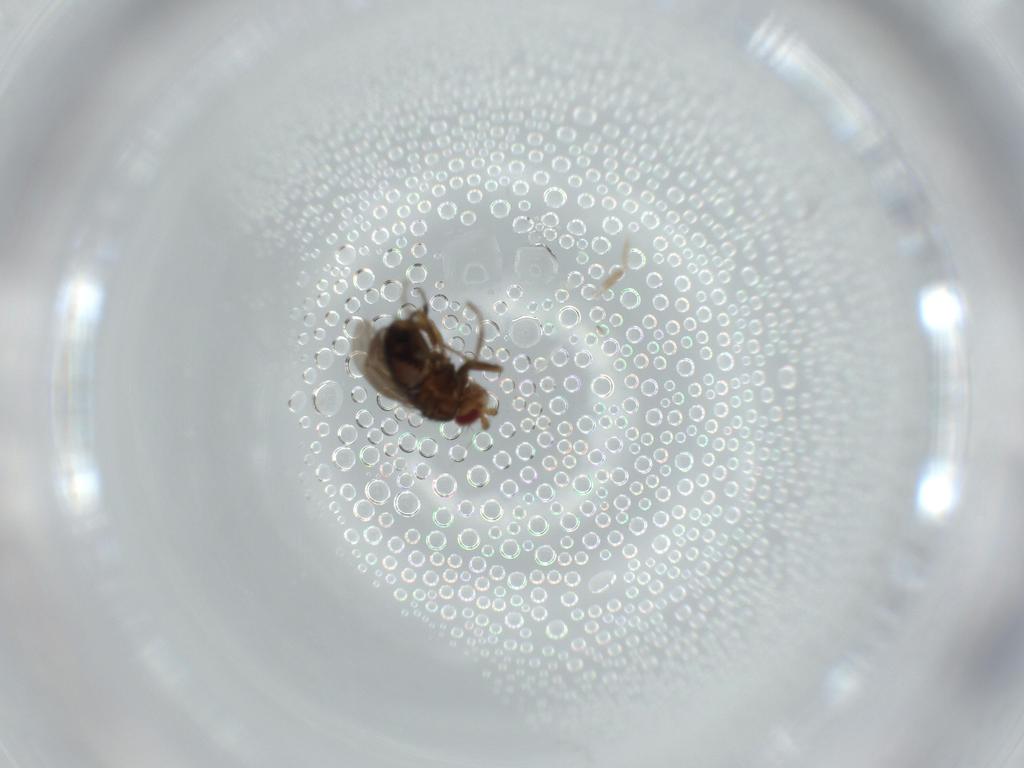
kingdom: Animalia
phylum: Arthropoda
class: Insecta
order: Diptera
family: Sphaeroceridae
